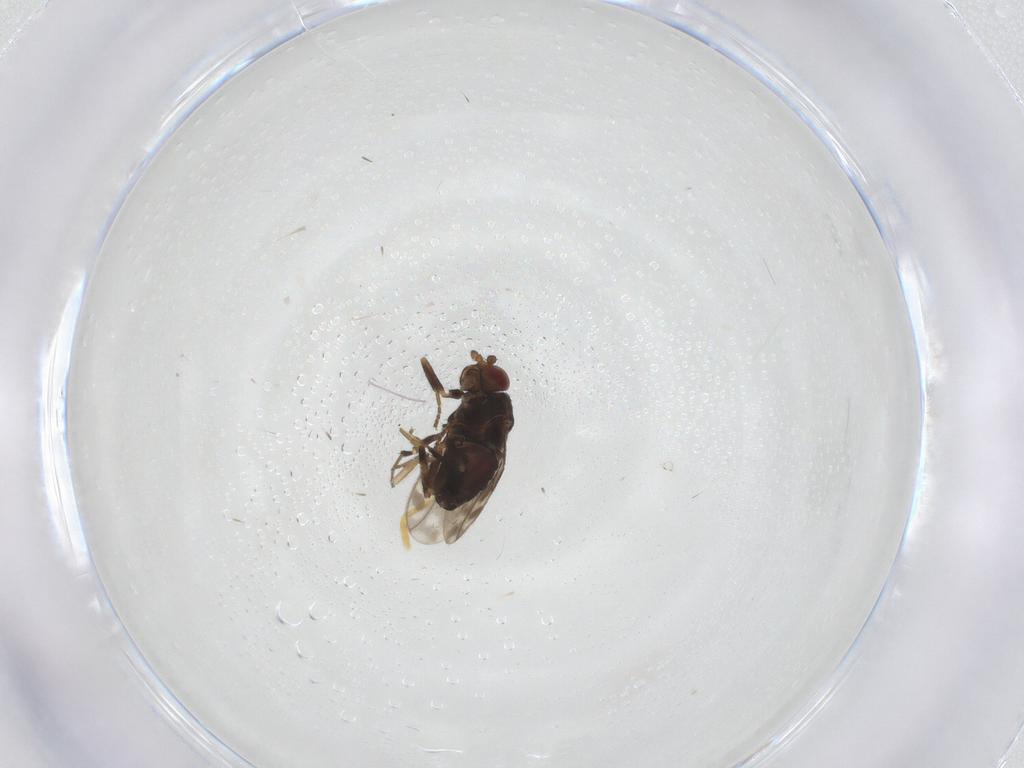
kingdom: Animalia
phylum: Arthropoda
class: Insecta
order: Diptera
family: Sphaeroceridae
